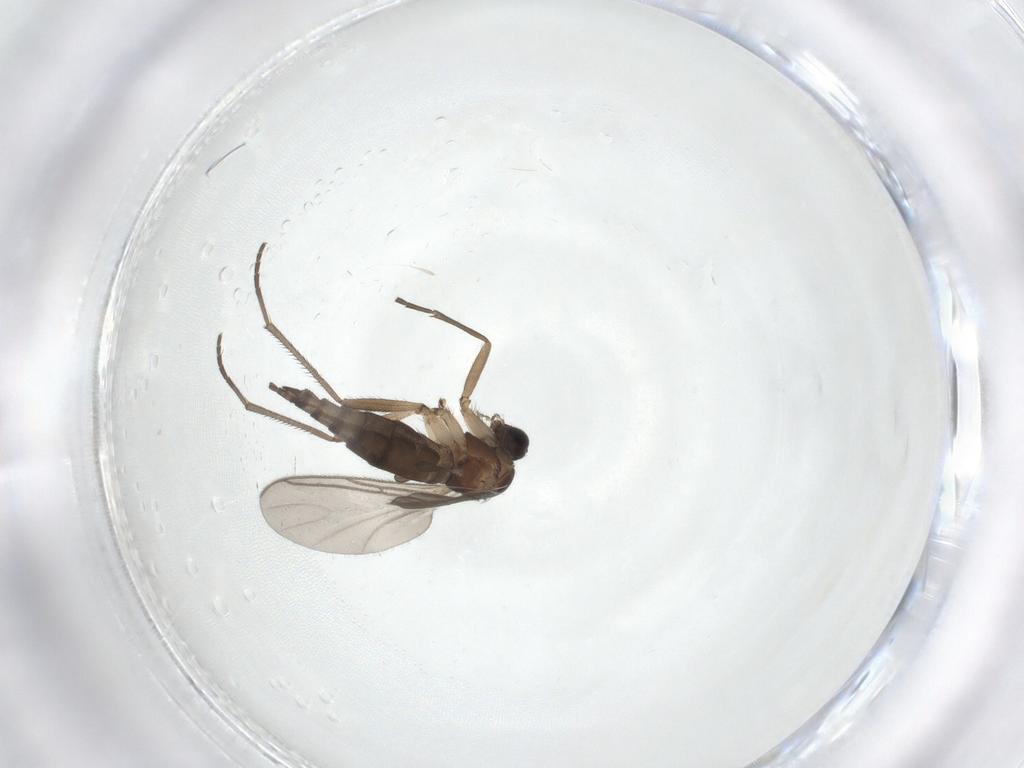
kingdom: Animalia
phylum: Arthropoda
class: Insecta
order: Diptera
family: Sciaridae
